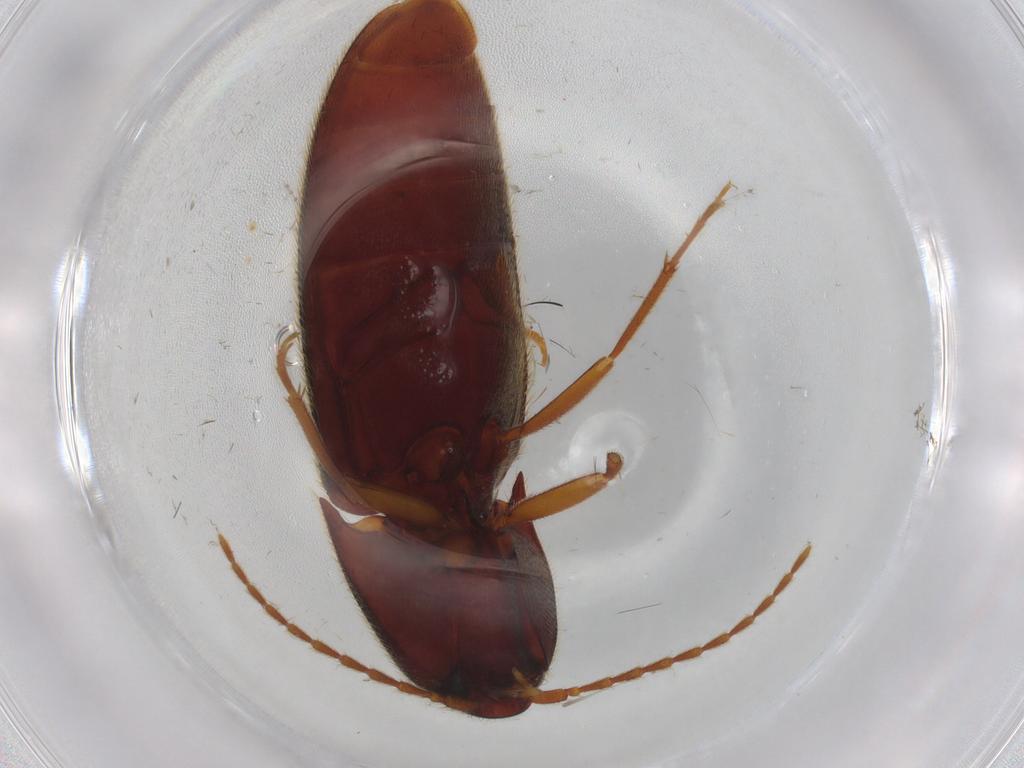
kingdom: Animalia
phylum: Arthropoda
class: Insecta
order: Coleoptera
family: Elateridae
